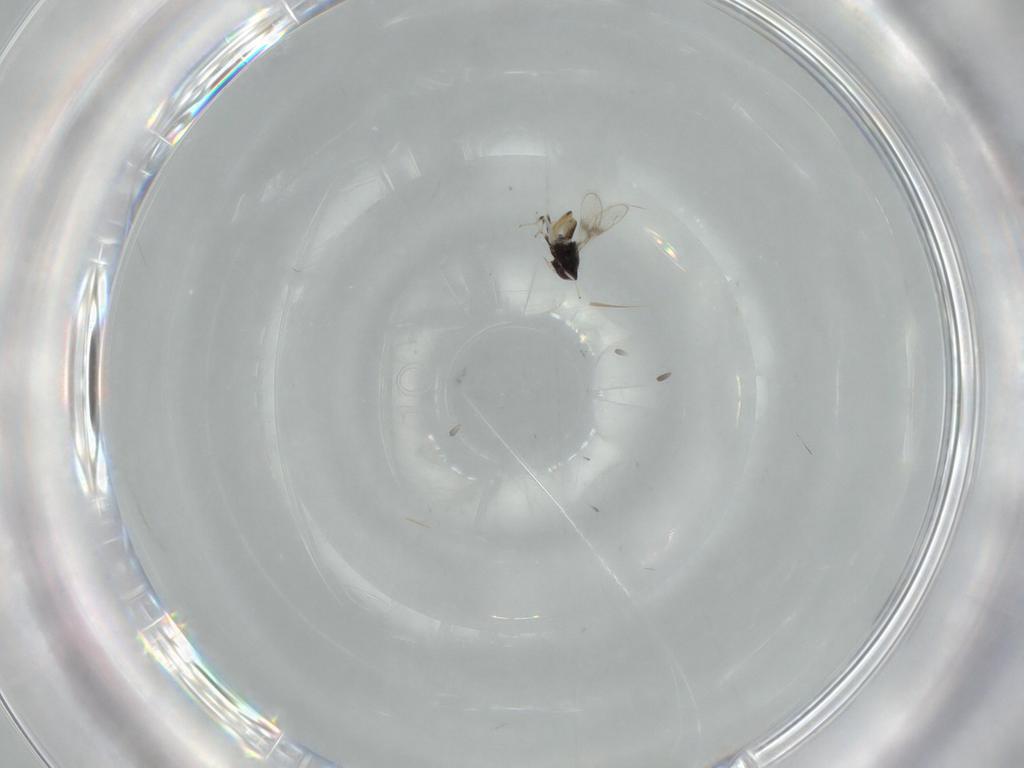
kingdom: Animalia
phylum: Arthropoda
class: Insecta
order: Hymenoptera
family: Eulophidae
